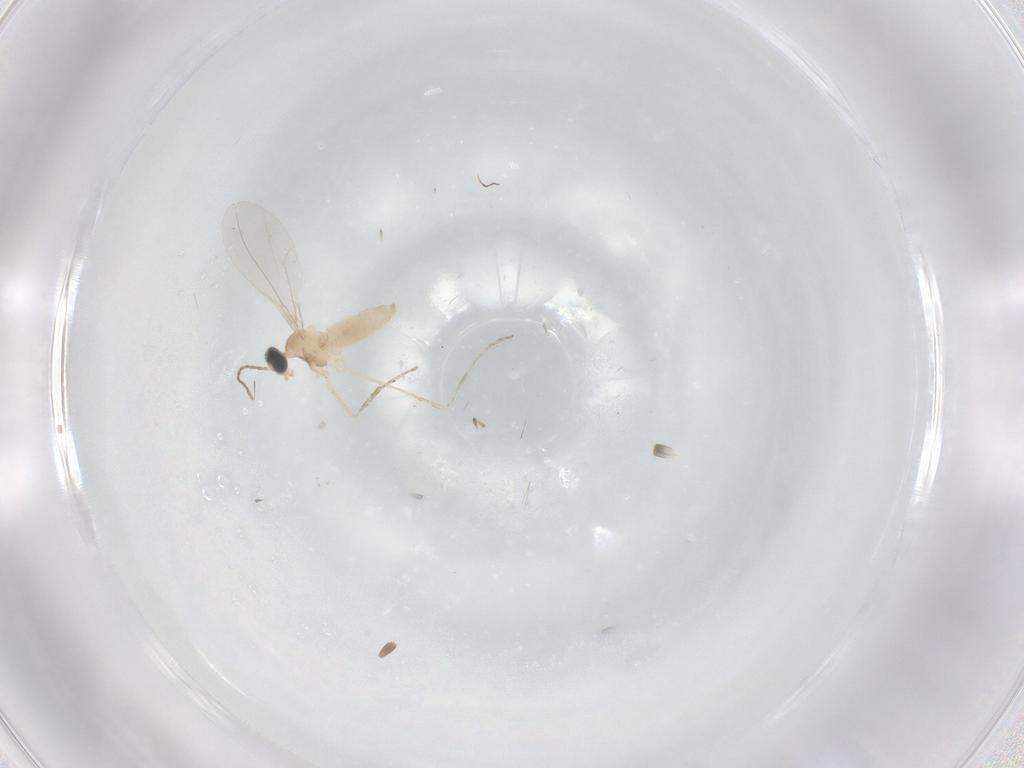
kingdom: Animalia
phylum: Arthropoda
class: Insecta
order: Diptera
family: Cecidomyiidae
